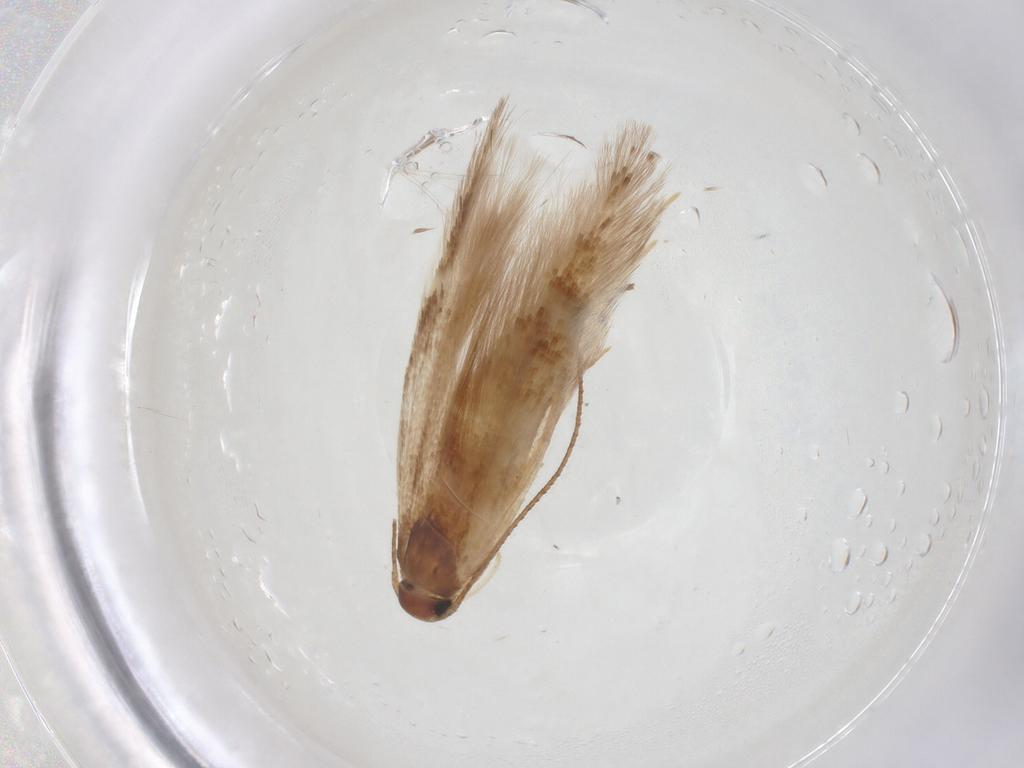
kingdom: Animalia
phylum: Arthropoda
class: Insecta
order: Lepidoptera
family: Gelechiidae
